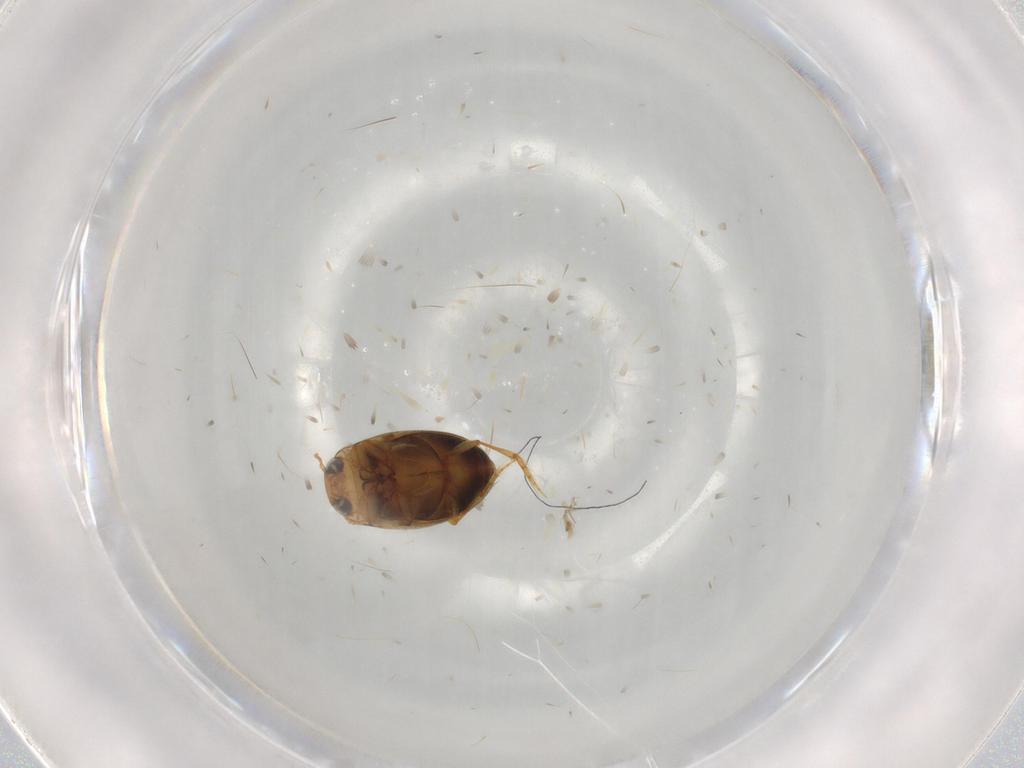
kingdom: Animalia
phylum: Arthropoda
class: Insecta
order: Coleoptera
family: Dytiscidae
